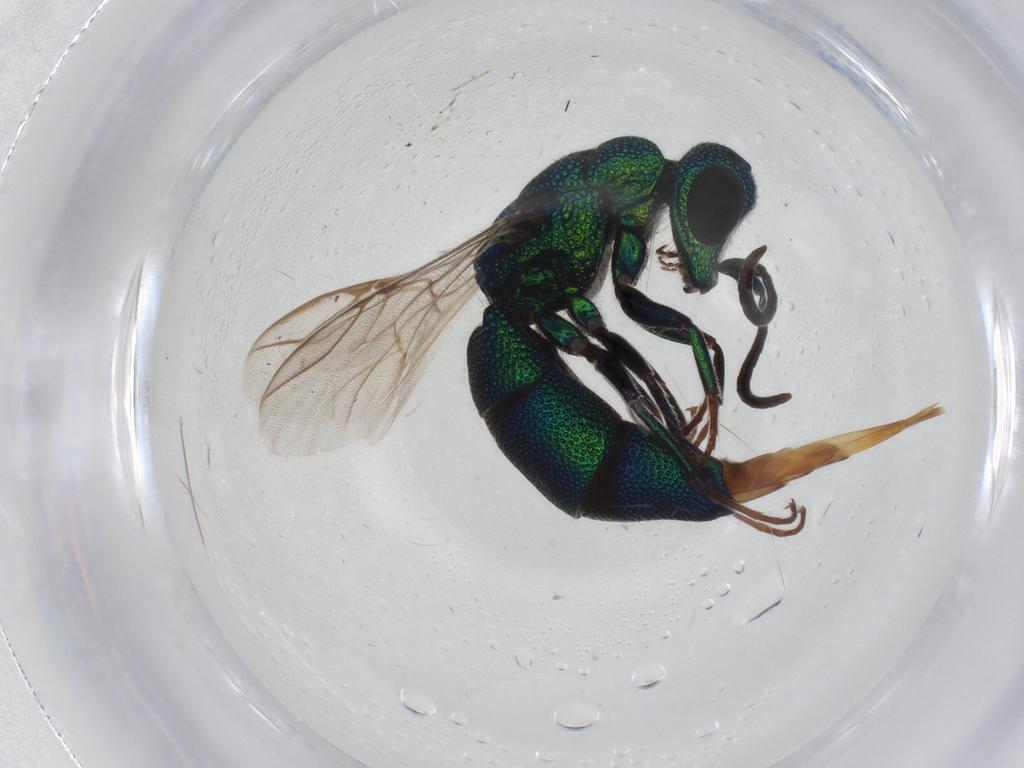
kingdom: Animalia
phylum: Arthropoda
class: Insecta
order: Hymenoptera
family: Chrysididae
